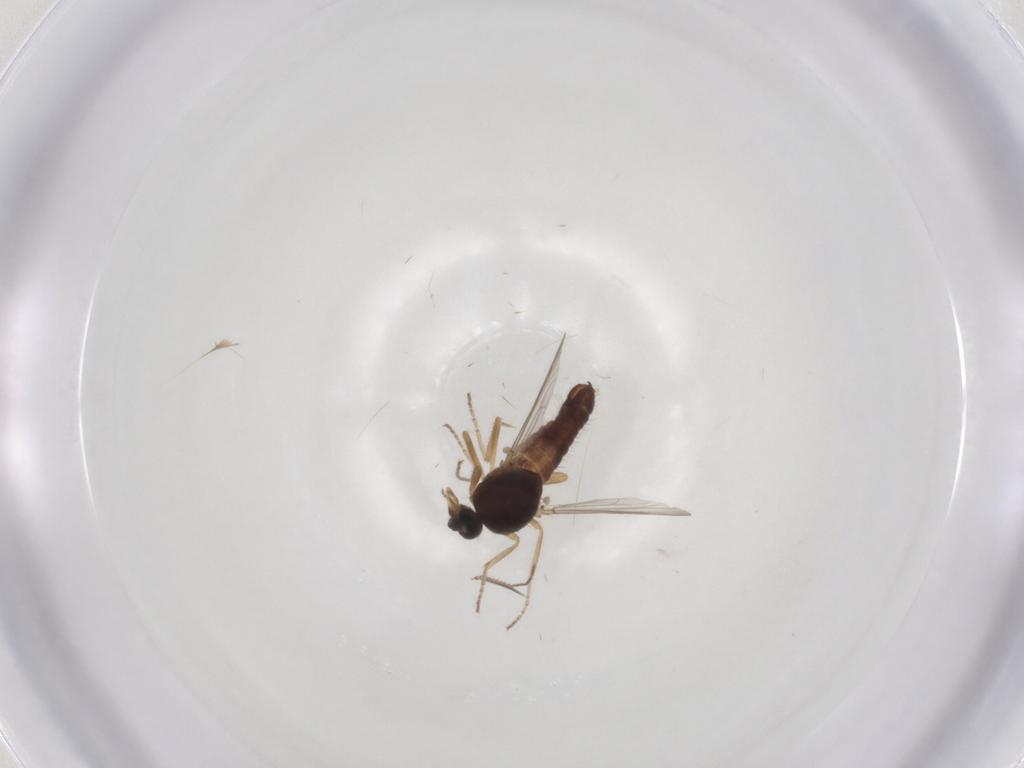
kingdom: Animalia
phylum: Arthropoda
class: Insecta
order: Diptera
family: Ceratopogonidae
